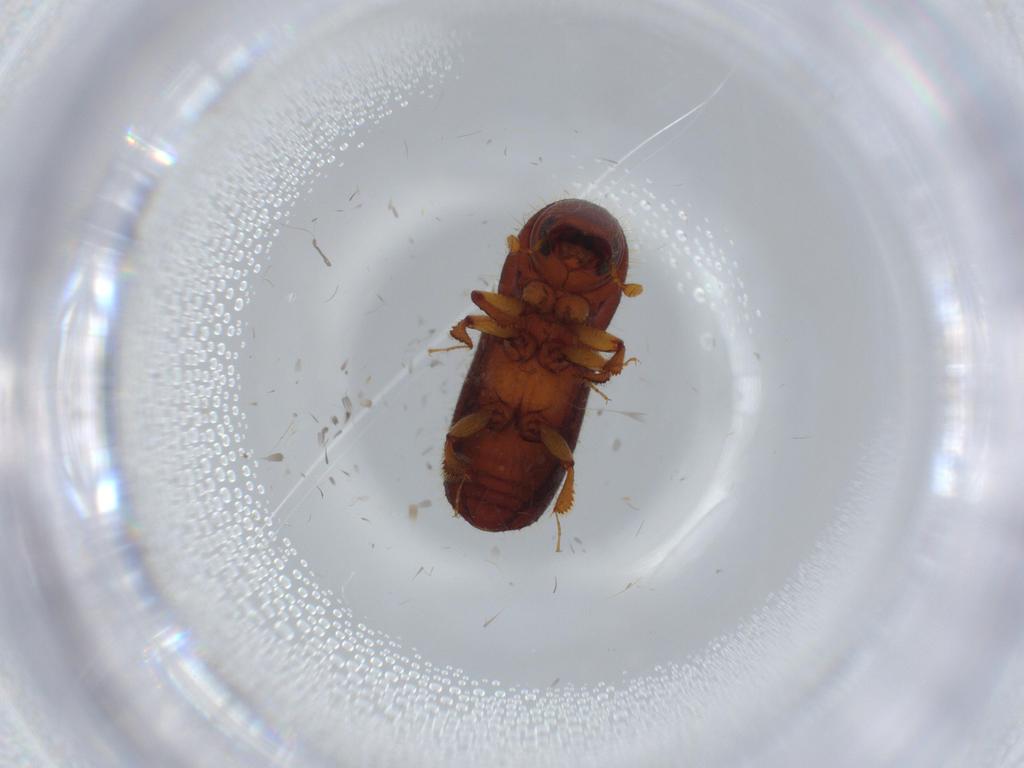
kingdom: Animalia
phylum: Arthropoda
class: Insecta
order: Coleoptera
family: Curculionidae
